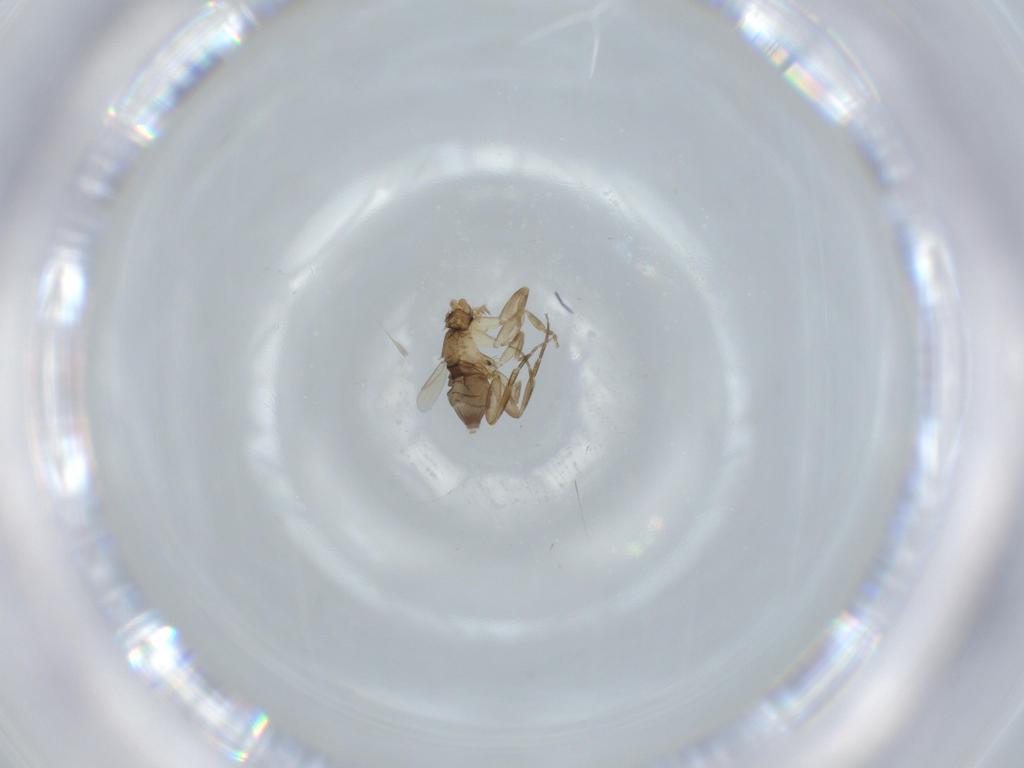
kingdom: Animalia
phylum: Arthropoda
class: Insecta
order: Diptera
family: Phoridae
